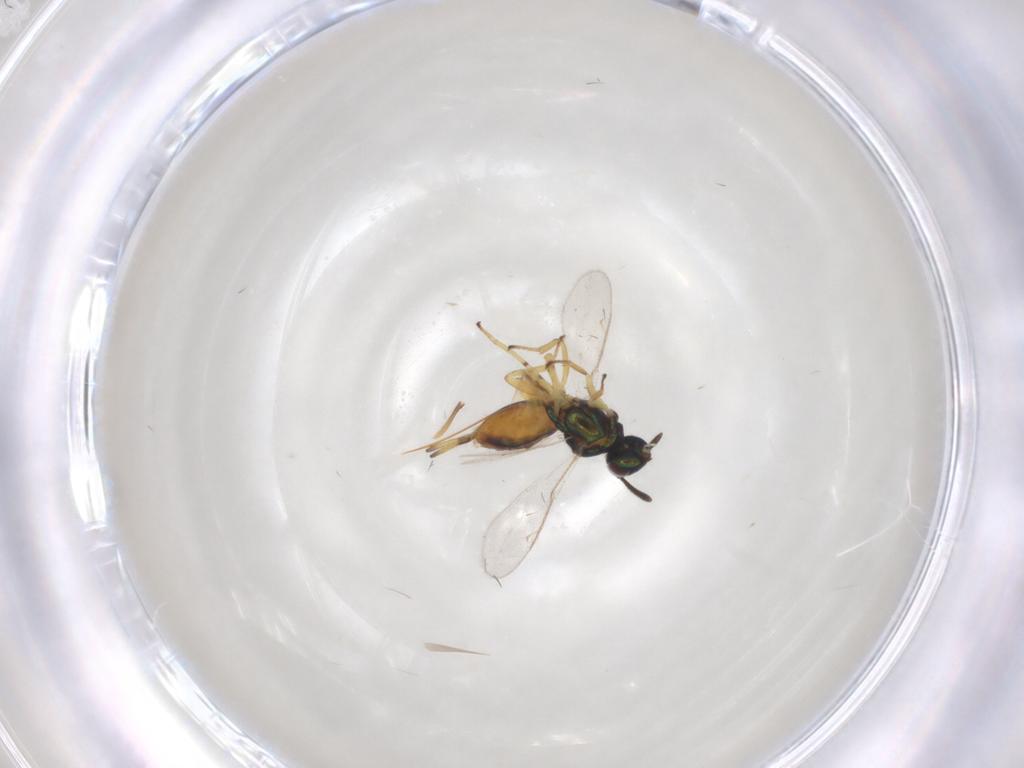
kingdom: Animalia
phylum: Arthropoda
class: Insecta
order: Hymenoptera
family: Eupelmidae
